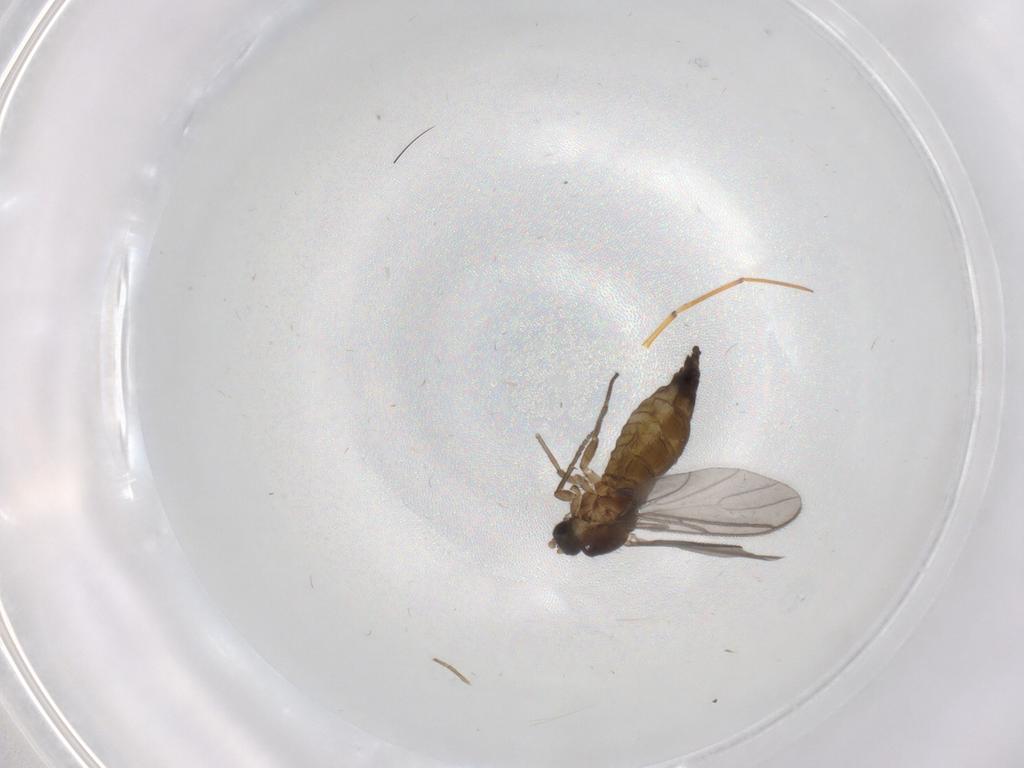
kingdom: Animalia
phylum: Arthropoda
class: Insecta
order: Diptera
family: Sciaridae
